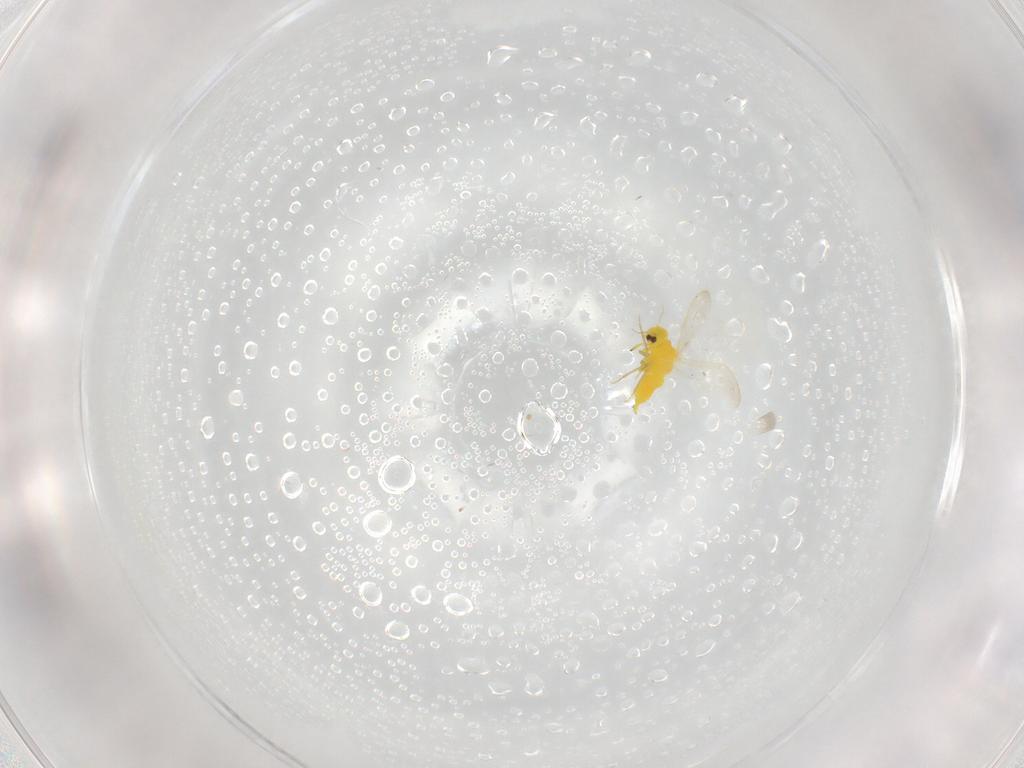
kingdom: Animalia
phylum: Arthropoda
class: Insecta
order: Hemiptera
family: Aleyrodidae
